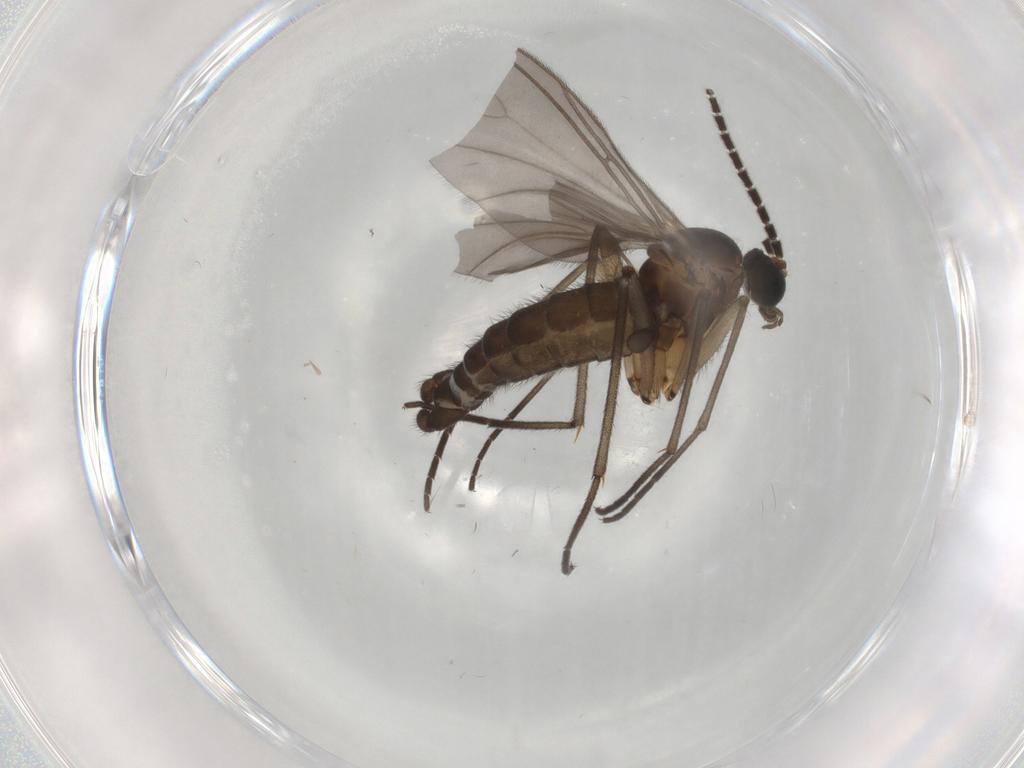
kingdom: Animalia
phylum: Arthropoda
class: Insecta
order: Diptera
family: Sciaridae
